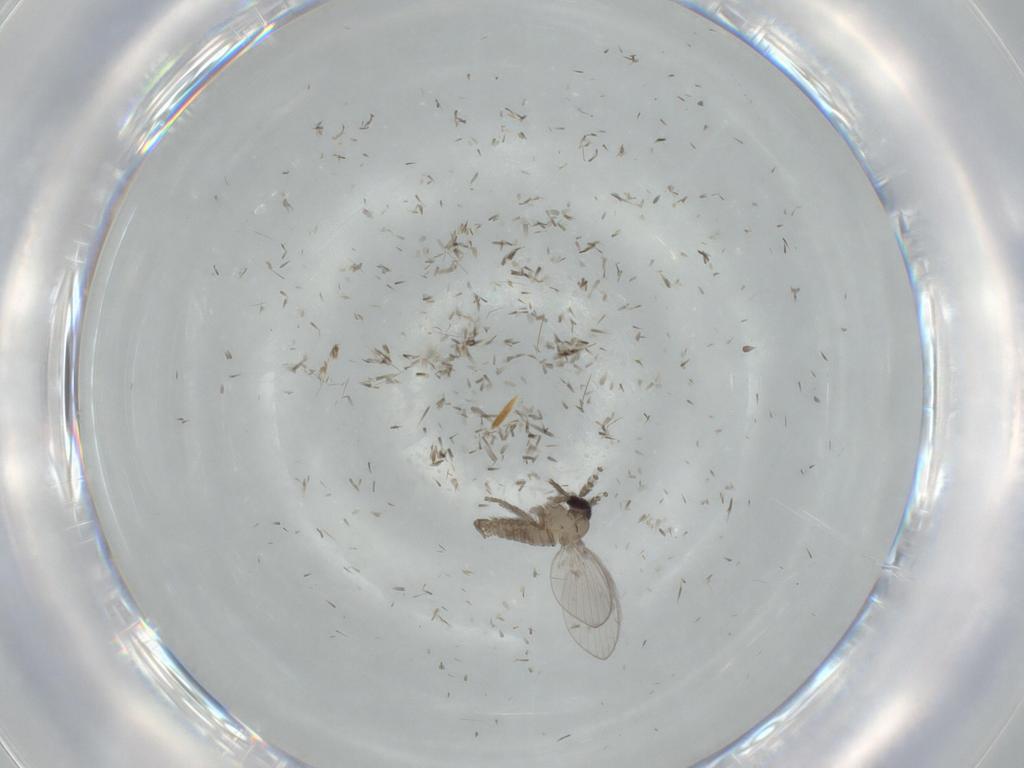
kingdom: Animalia
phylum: Arthropoda
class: Insecta
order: Diptera
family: Psychodidae
